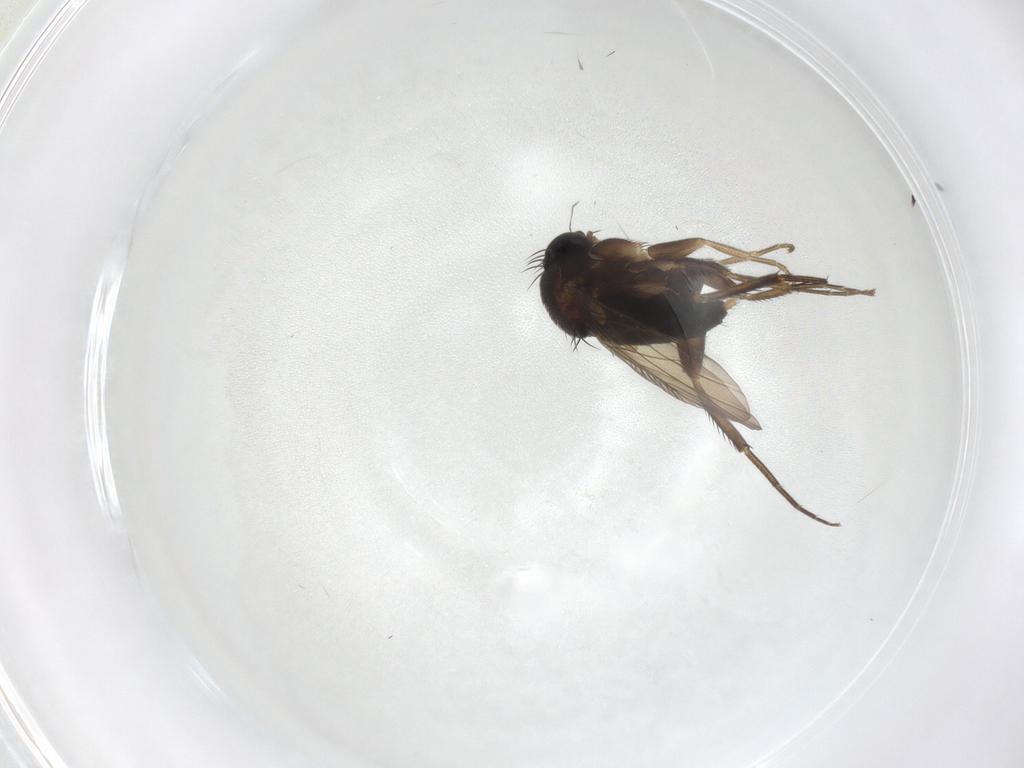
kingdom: Animalia
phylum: Arthropoda
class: Insecta
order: Diptera
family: Phoridae
